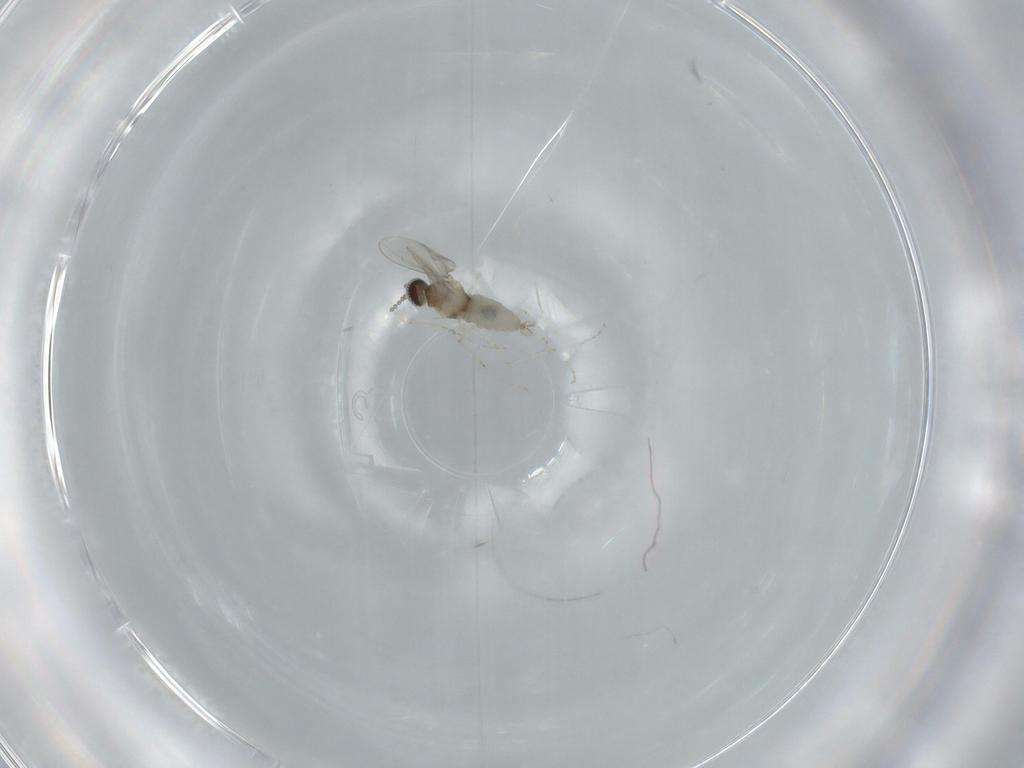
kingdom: Animalia
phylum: Arthropoda
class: Insecta
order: Diptera
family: Cecidomyiidae
